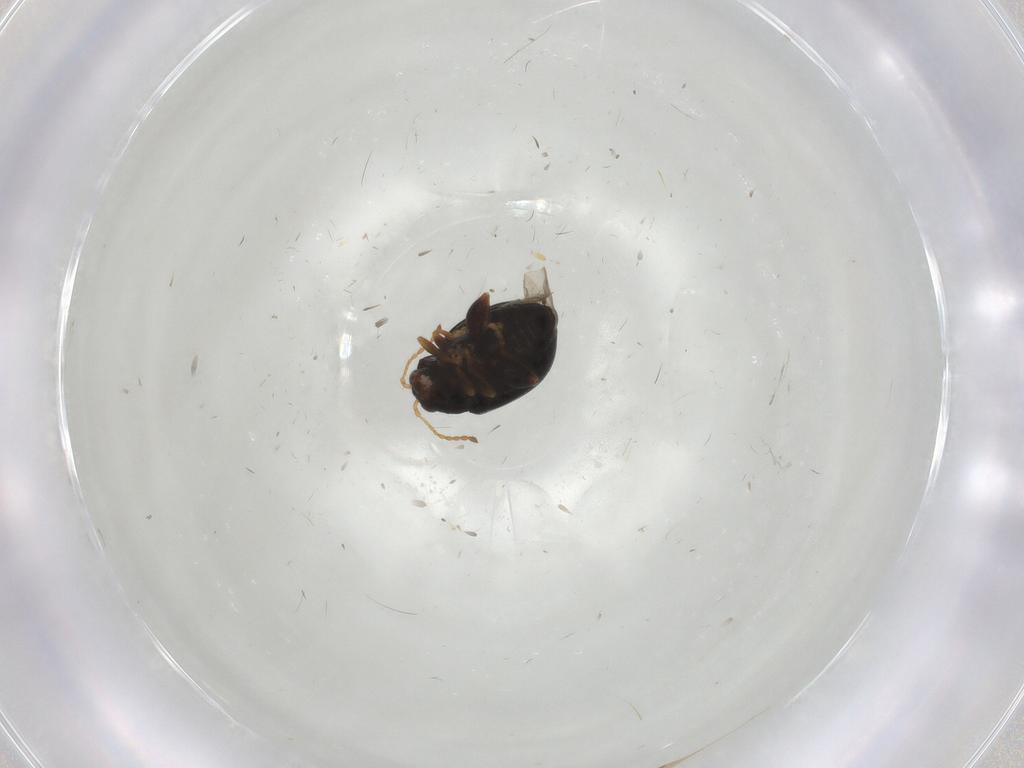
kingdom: Animalia
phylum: Arthropoda
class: Insecta
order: Coleoptera
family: Chrysomelidae
